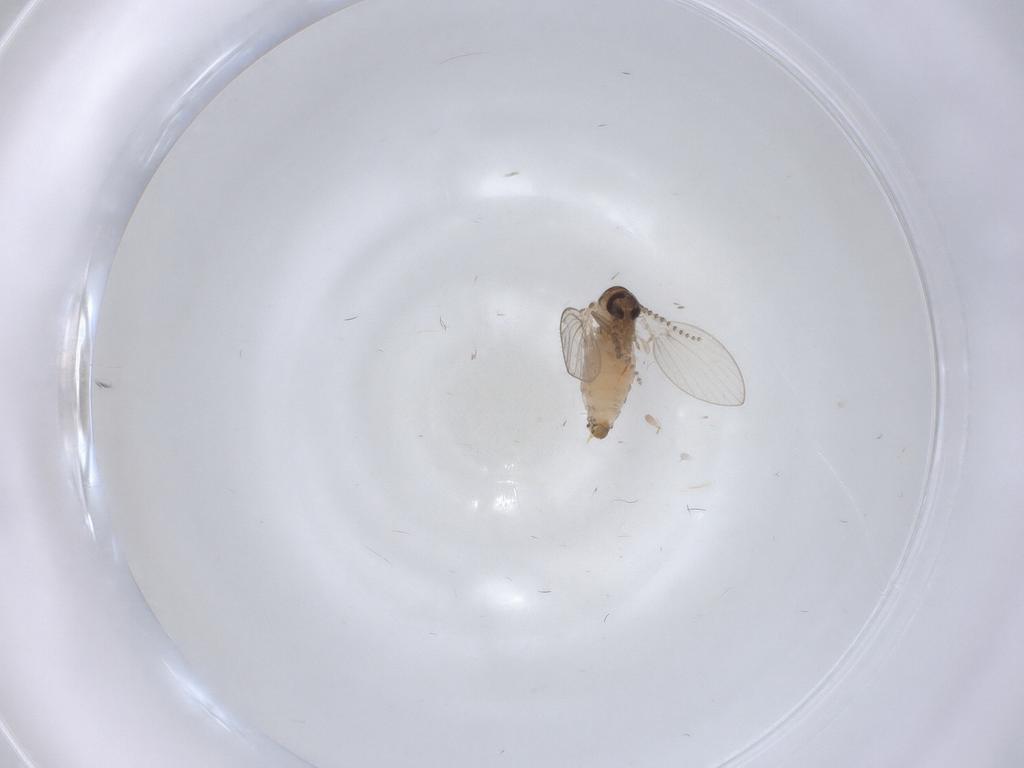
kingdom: Animalia
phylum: Arthropoda
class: Insecta
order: Diptera
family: Psychodidae
